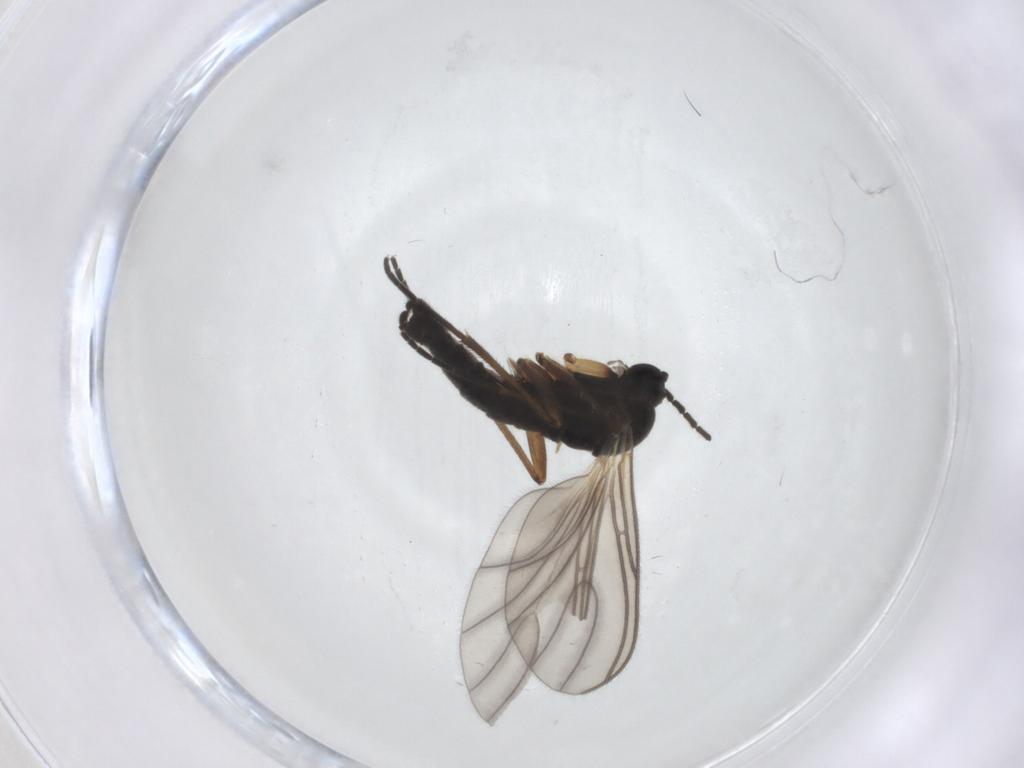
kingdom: Animalia
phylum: Arthropoda
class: Insecta
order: Diptera
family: Sciaridae
